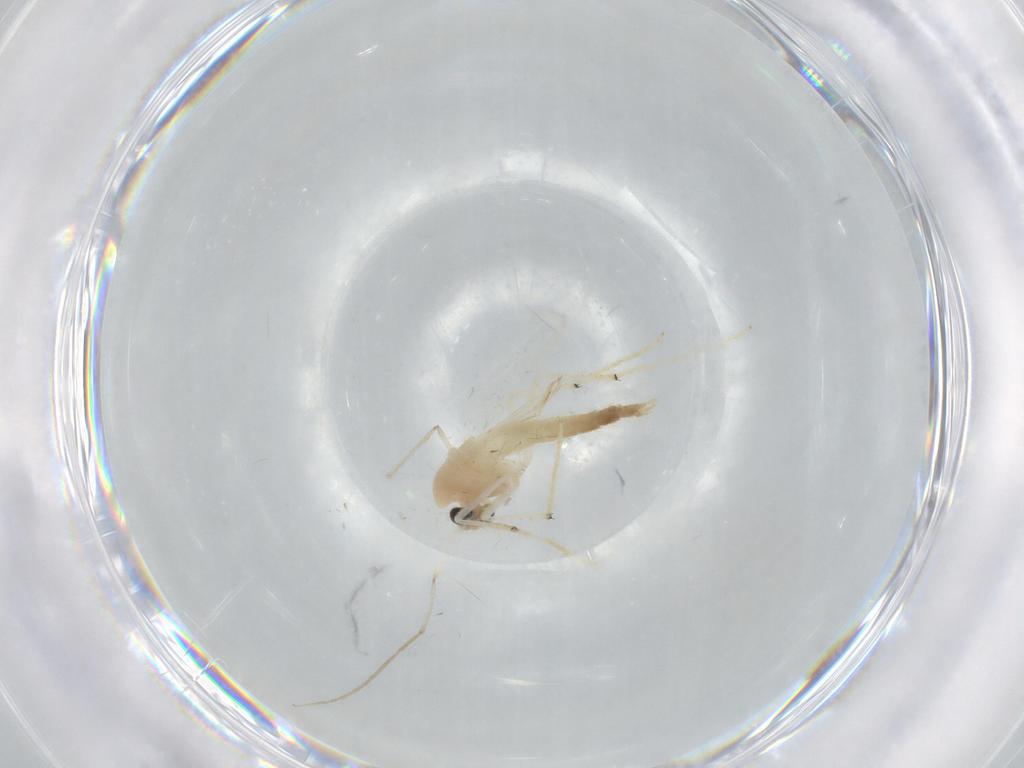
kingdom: Animalia
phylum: Arthropoda
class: Insecta
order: Diptera
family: Chironomidae
